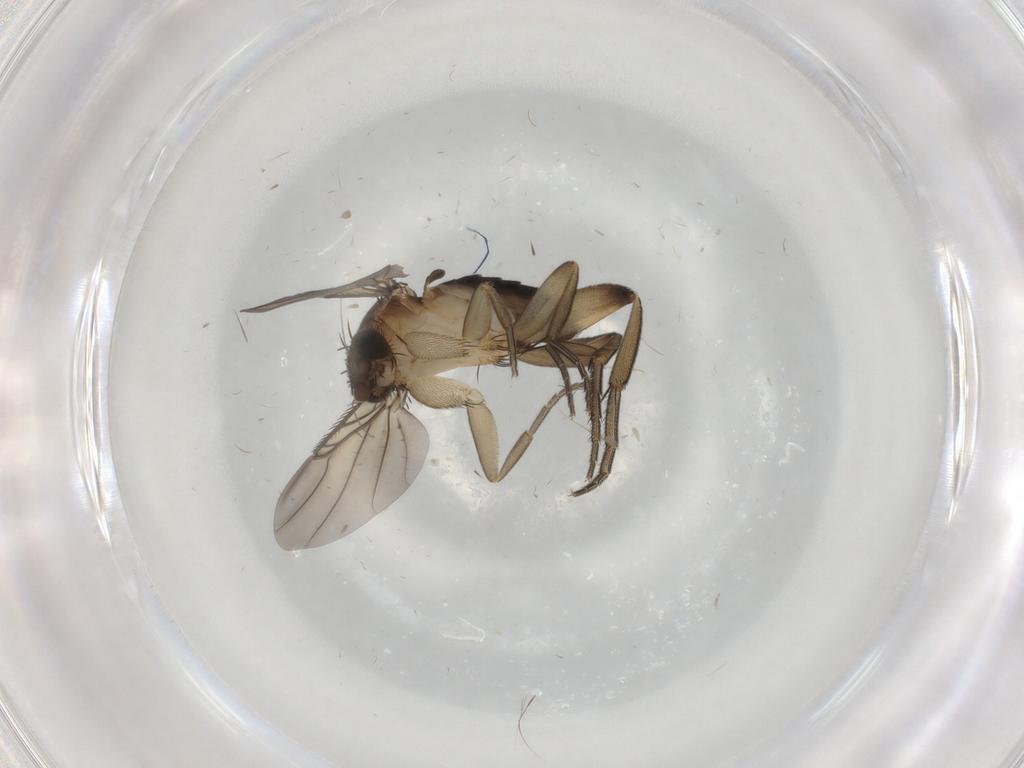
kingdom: Animalia
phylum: Arthropoda
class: Insecta
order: Diptera
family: Phoridae
